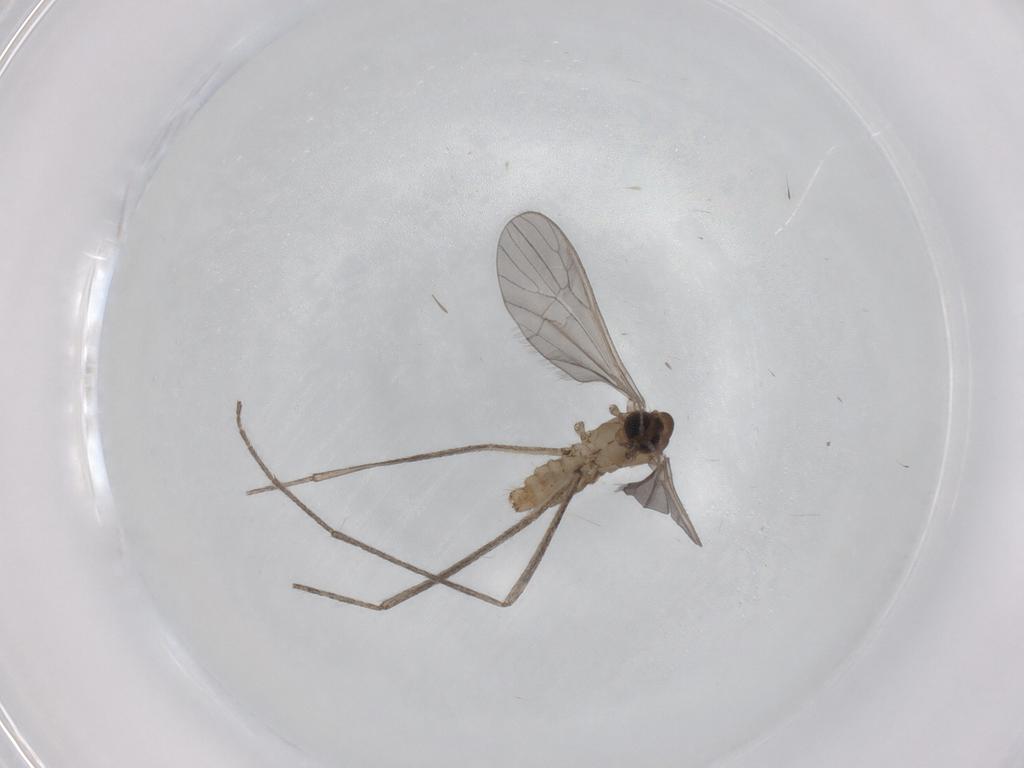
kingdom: Animalia
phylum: Arthropoda
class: Insecta
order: Diptera
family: Limoniidae
